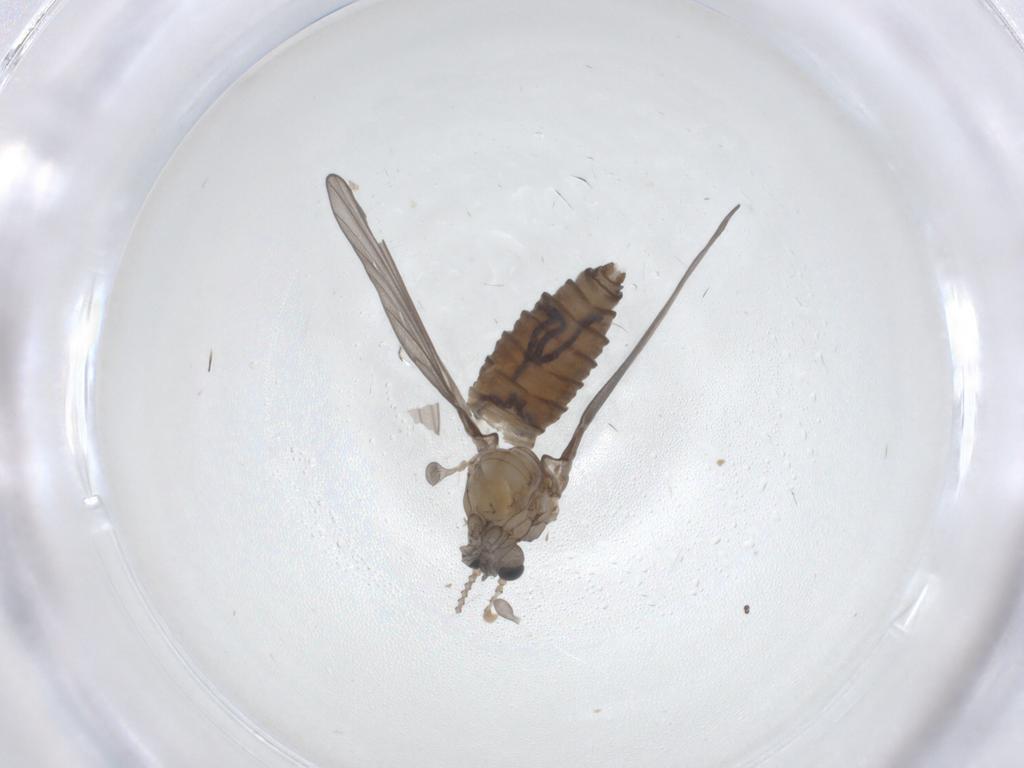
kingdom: Animalia
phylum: Arthropoda
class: Insecta
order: Diptera
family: Psychodidae
